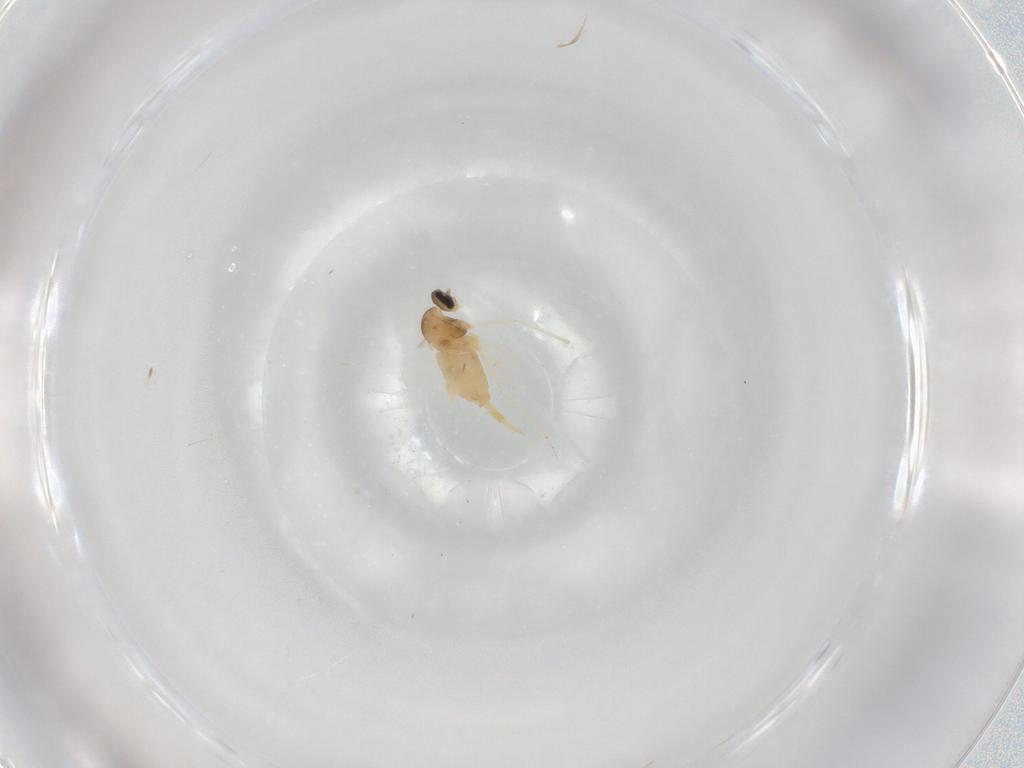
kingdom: Animalia
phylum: Arthropoda
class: Insecta
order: Diptera
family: Cecidomyiidae
